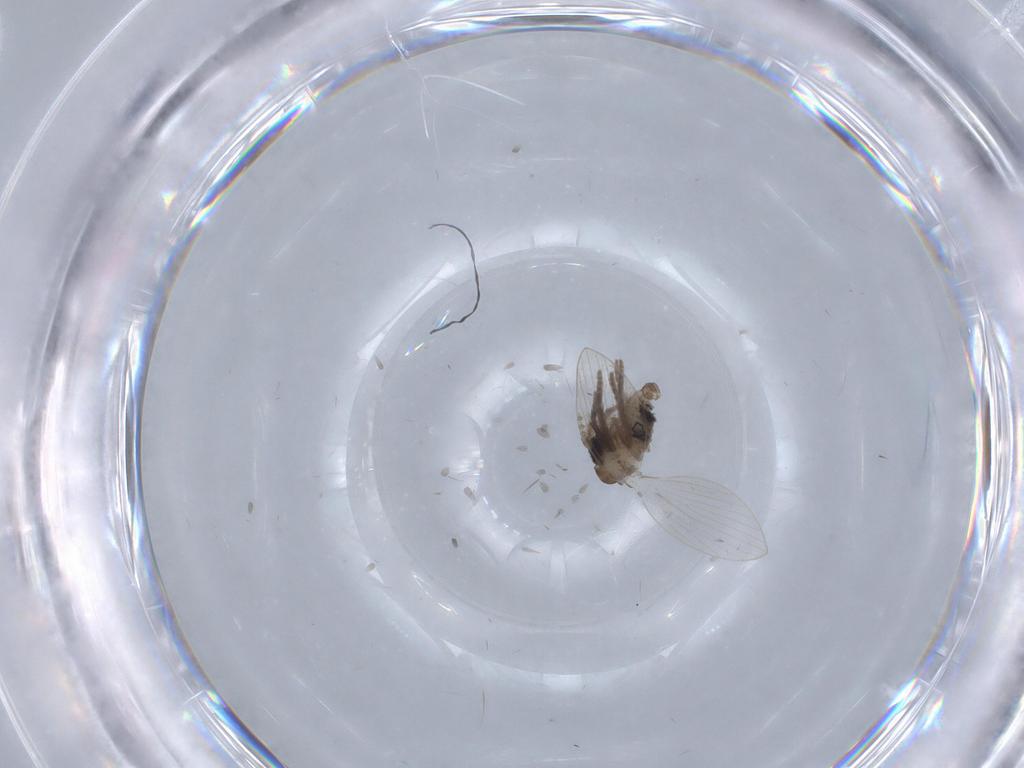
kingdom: Animalia
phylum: Arthropoda
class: Insecta
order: Diptera
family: Psychodidae
